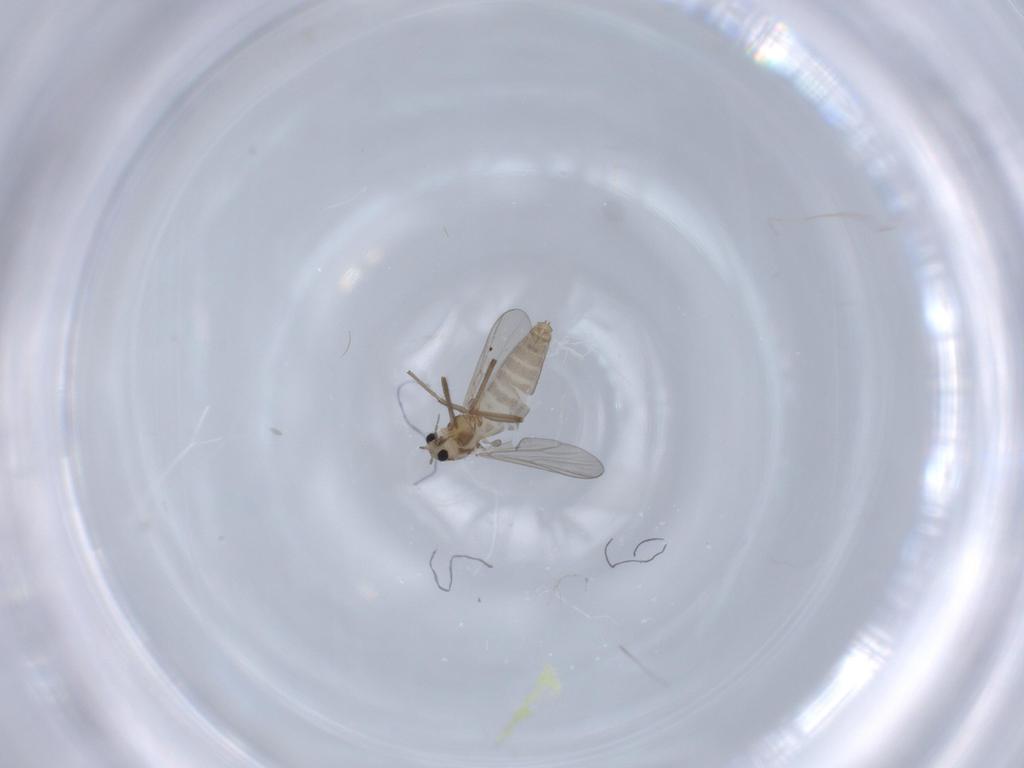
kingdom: Animalia
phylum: Arthropoda
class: Insecta
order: Diptera
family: Chironomidae
